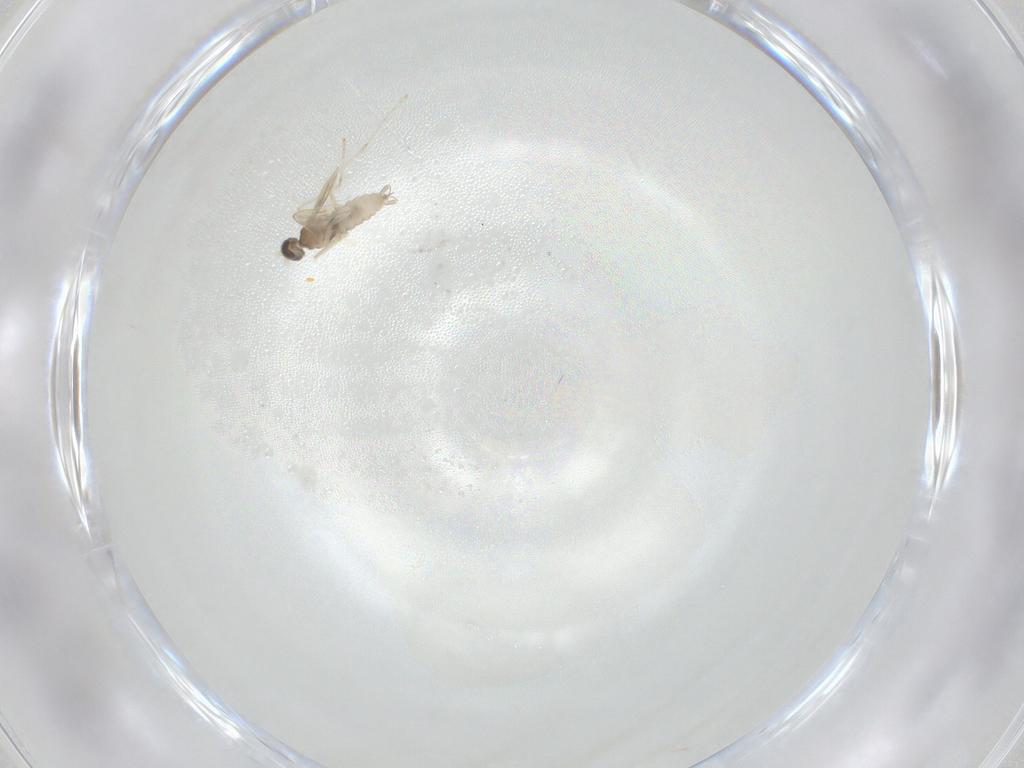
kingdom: Animalia
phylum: Arthropoda
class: Insecta
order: Diptera
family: Cecidomyiidae
